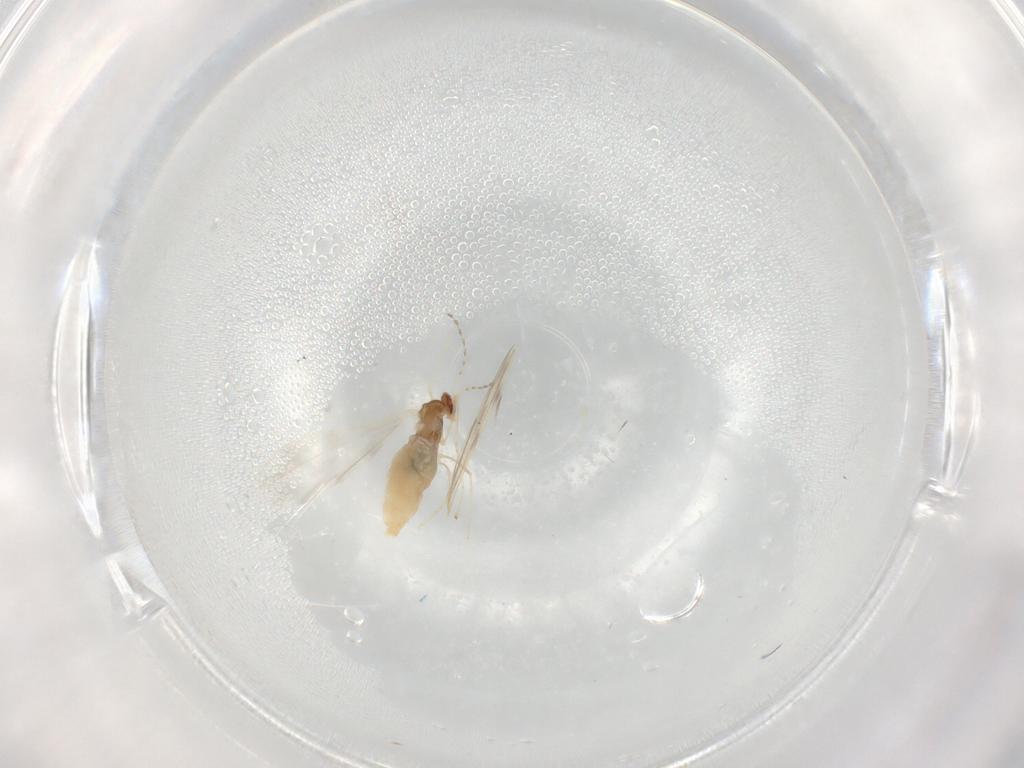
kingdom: Animalia
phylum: Arthropoda
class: Insecta
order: Diptera
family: Cecidomyiidae
